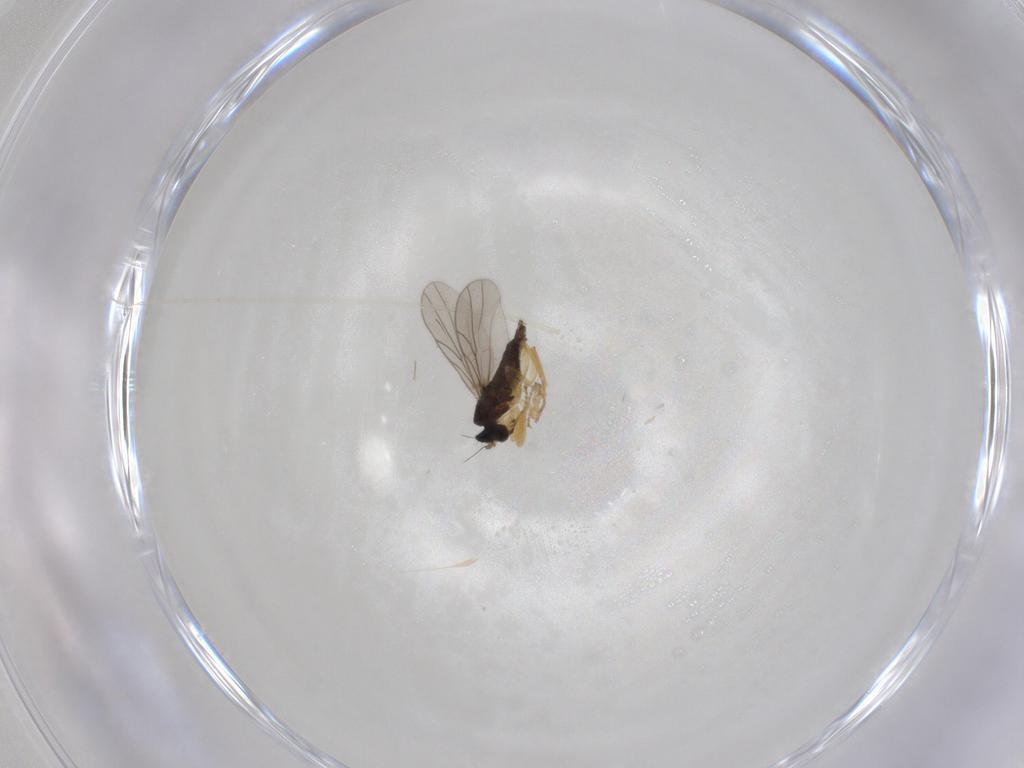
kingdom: Animalia
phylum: Arthropoda
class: Insecta
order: Diptera
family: Hybotidae
